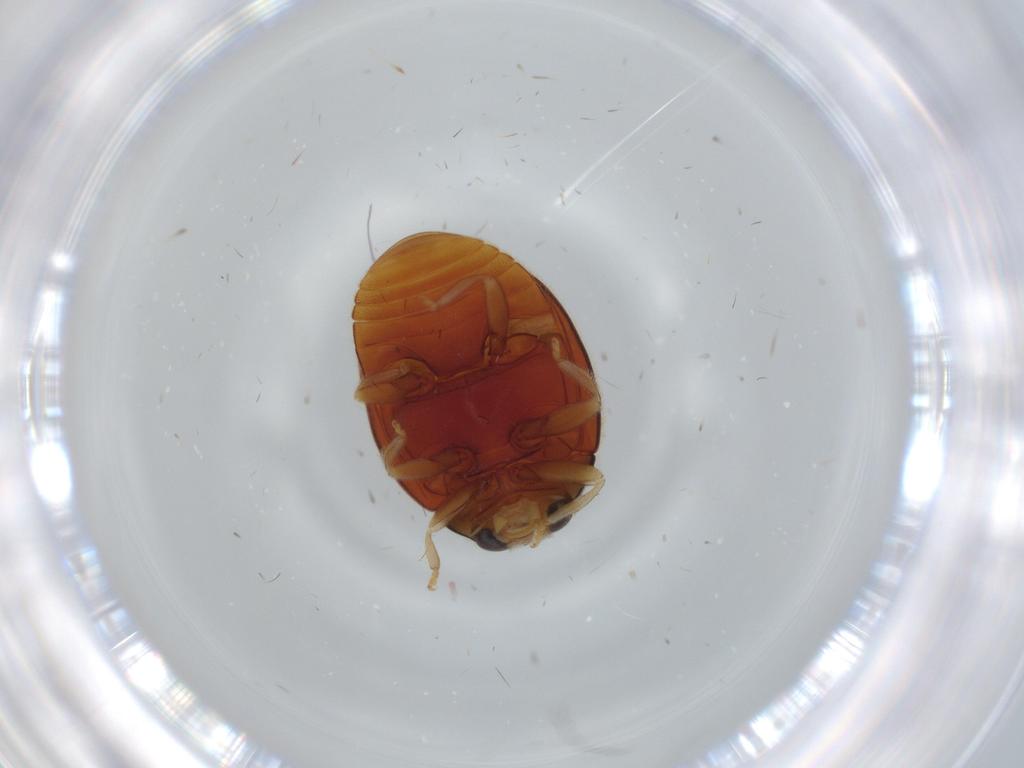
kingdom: Animalia
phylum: Arthropoda
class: Insecta
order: Coleoptera
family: Coccinellidae
